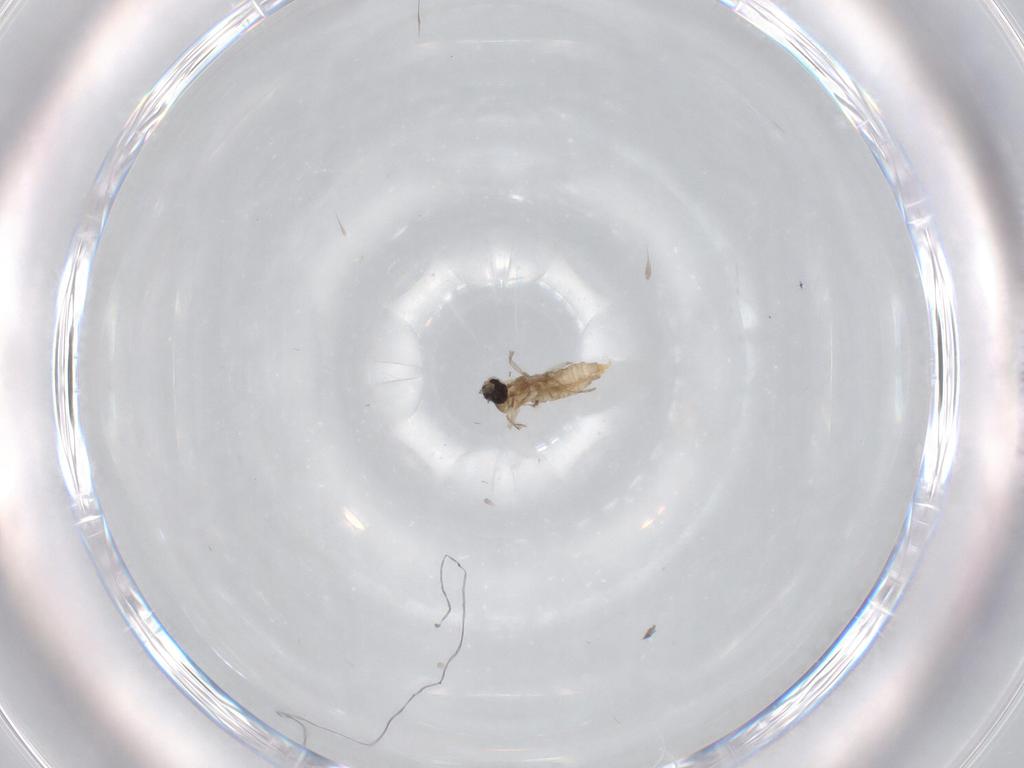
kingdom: Animalia
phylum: Arthropoda
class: Insecta
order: Diptera
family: Cecidomyiidae
